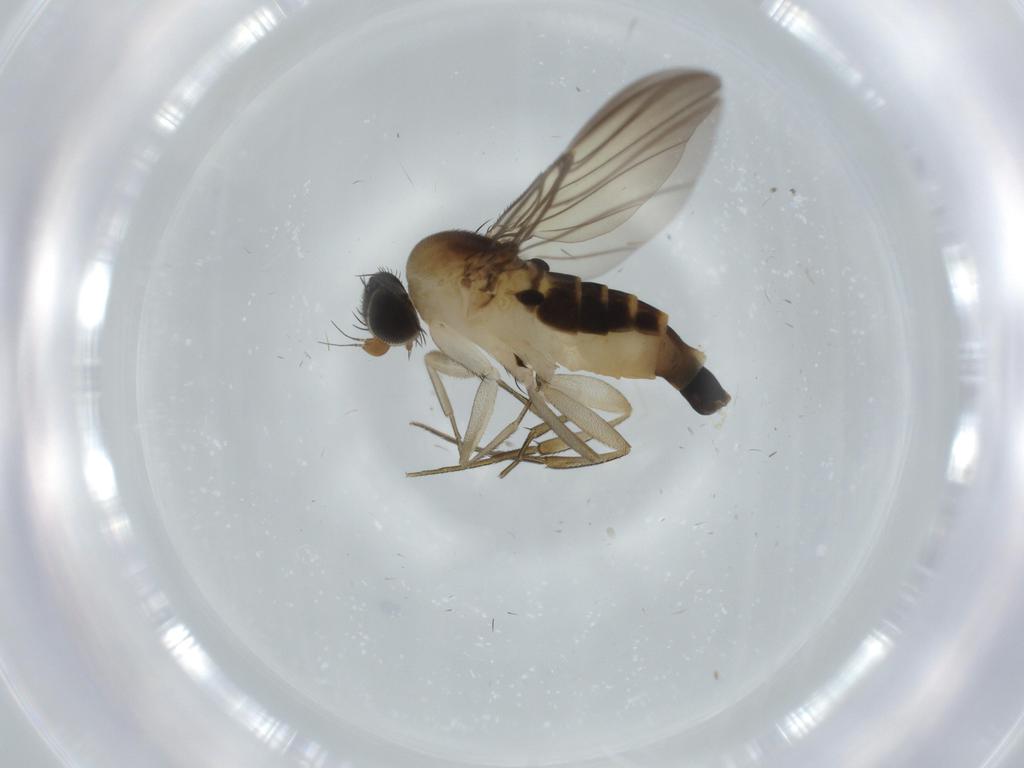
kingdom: Animalia
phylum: Arthropoda
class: Insecta
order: Diptera
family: Phoridae
